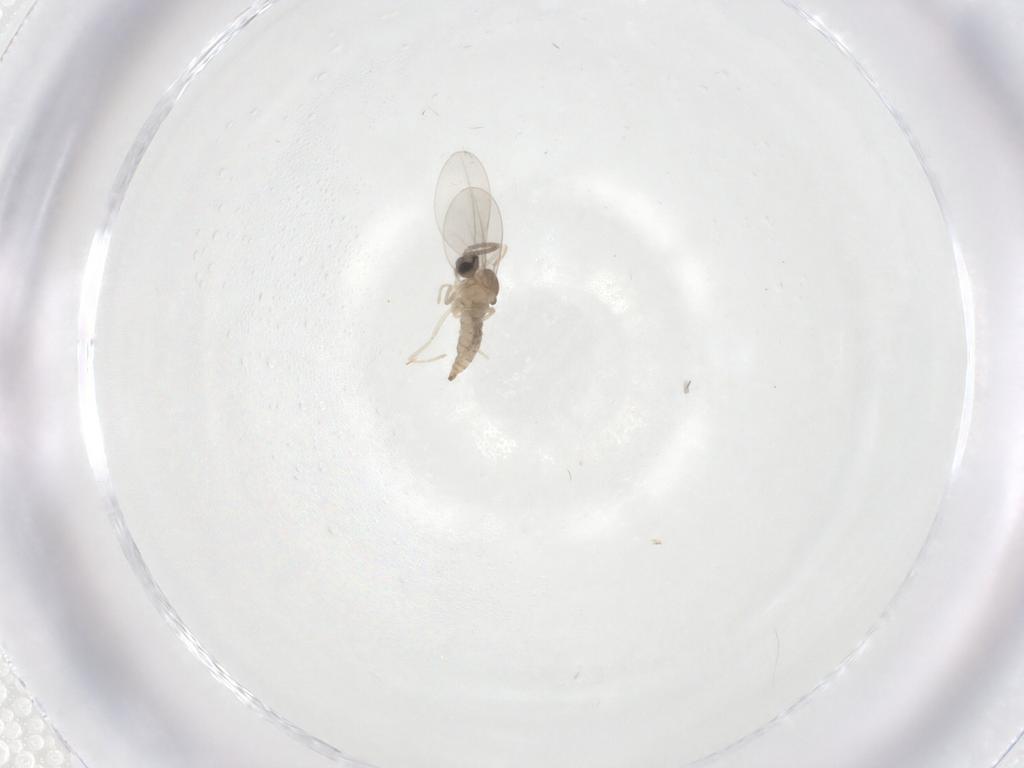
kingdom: Animalia
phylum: Arthropoda
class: Insecta
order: Diptera
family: Cecidomyiidae
